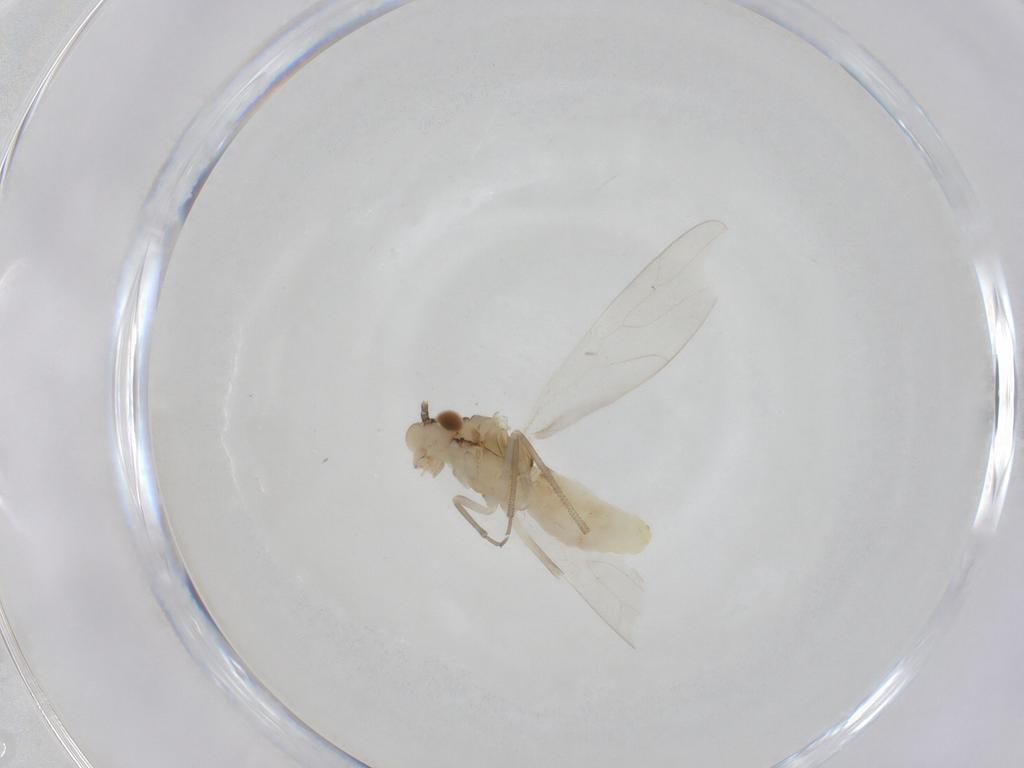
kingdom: Animalia
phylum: Arthropoda
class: Insecta
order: Psocodea
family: Caeciliusidae
